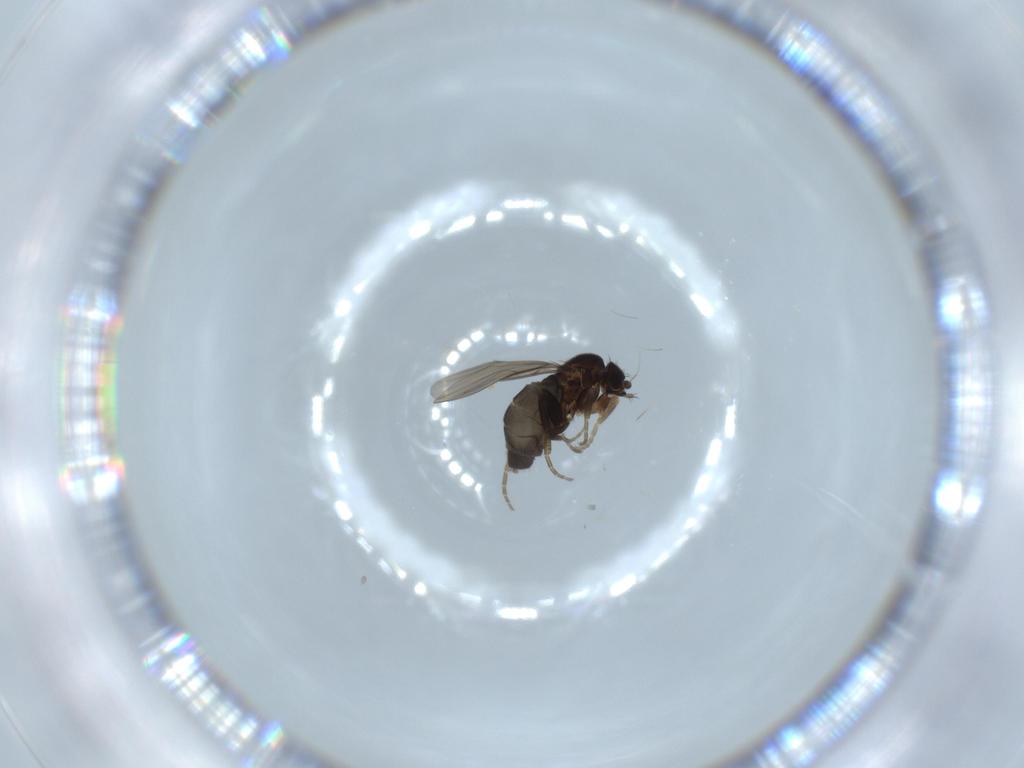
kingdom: Animalia
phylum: Arthropoda
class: Insecta
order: Diptera
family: Phoridae
